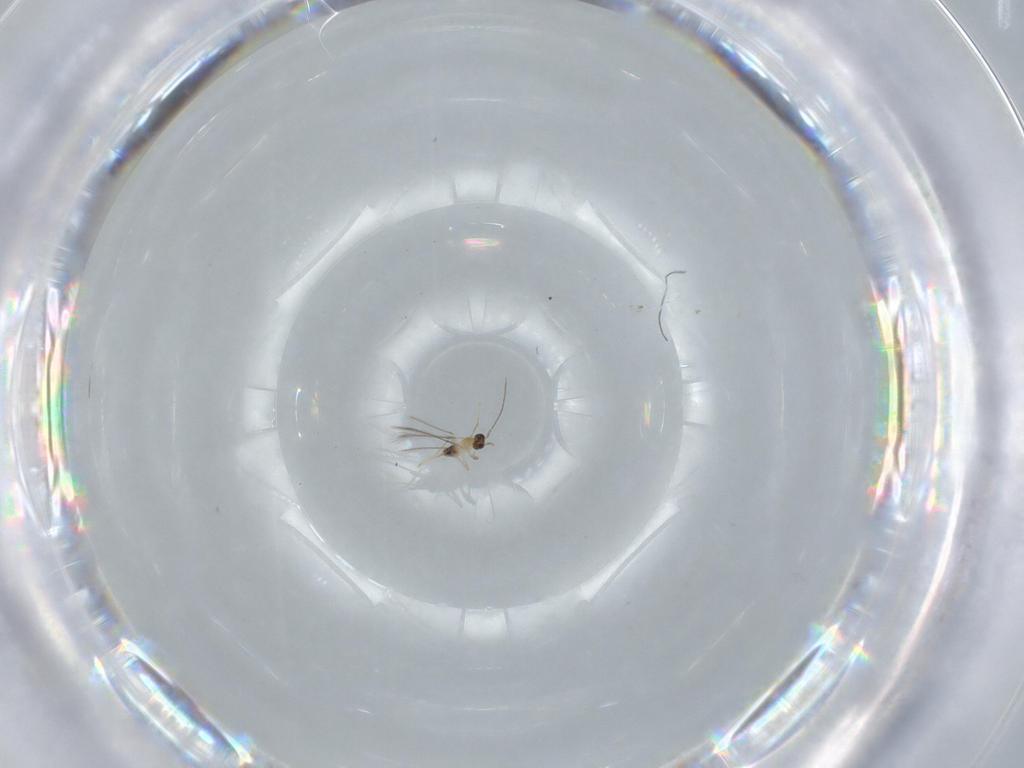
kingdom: Animalia
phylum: Arthropoda
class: Insecta
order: Hymenoptera
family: Mymaridae
